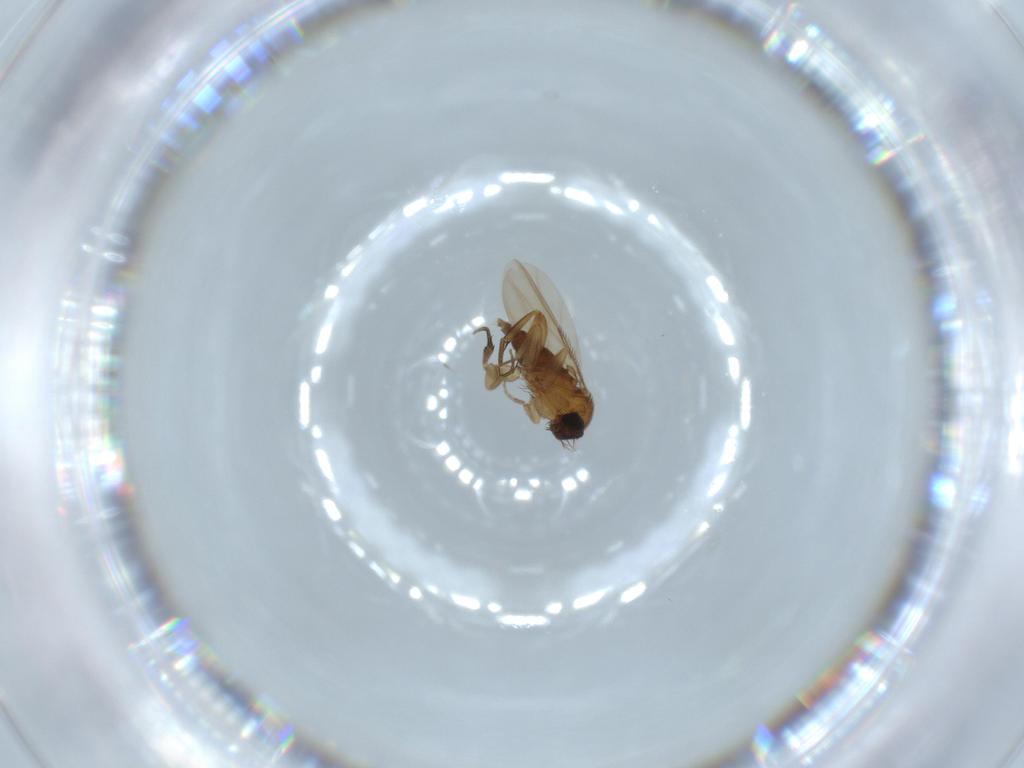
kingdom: Animalia
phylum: Arthropoda
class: Insecta
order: Diptera
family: Phoridae
